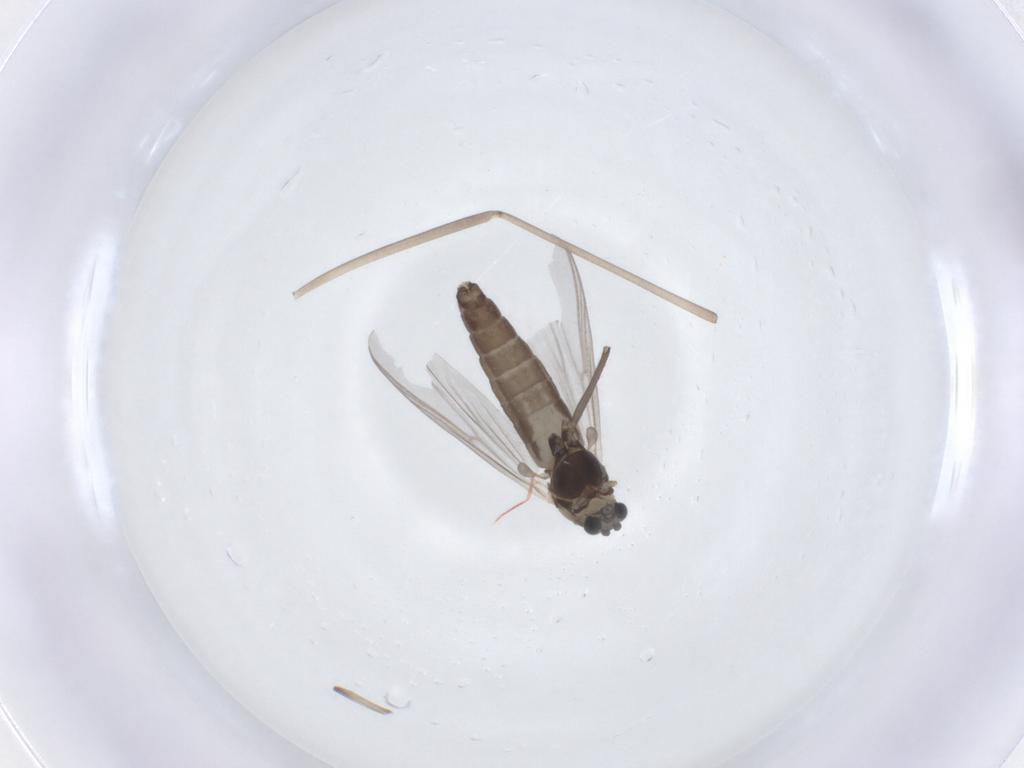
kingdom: Animalia
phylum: Arthropoda
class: Insecta
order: Diptera
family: Chironomidae
